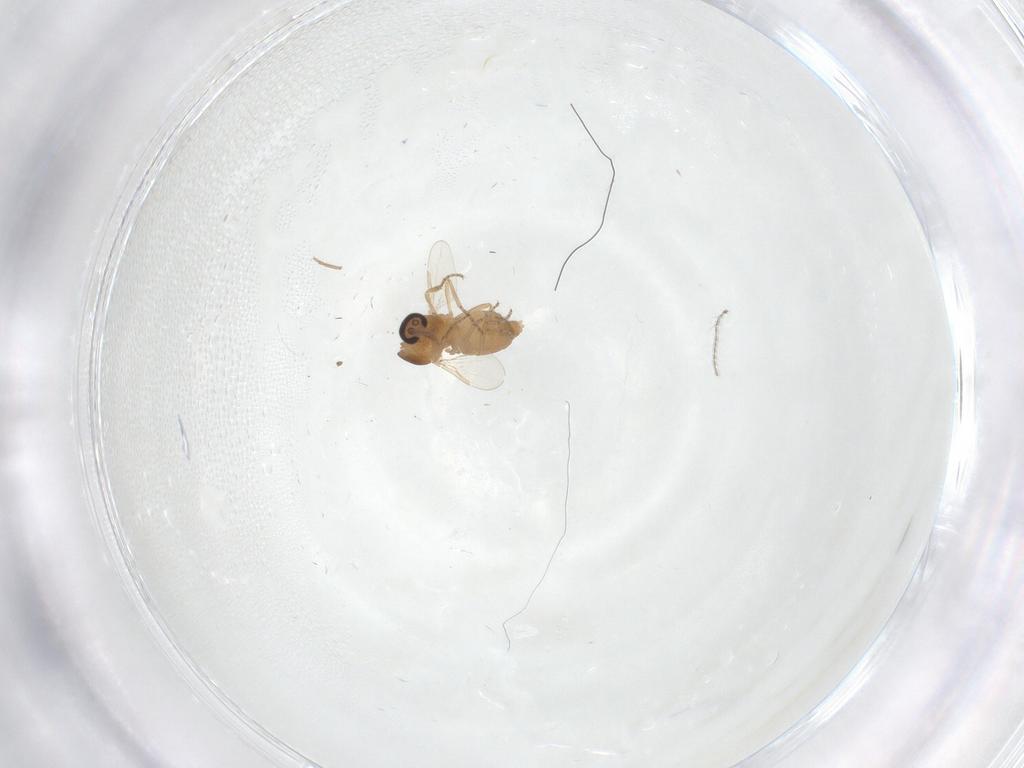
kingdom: Animalia
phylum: Arthropoda
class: Insecta
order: Diptera
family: Ceratopogonidae
